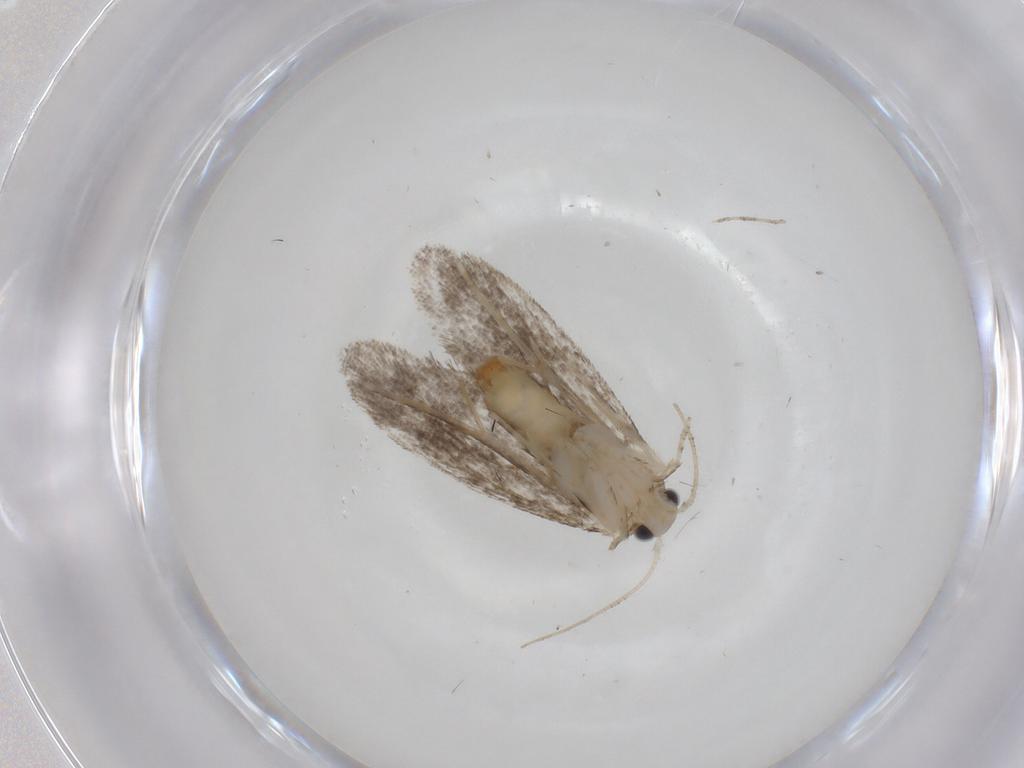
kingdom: Animalia
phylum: Arthropoda
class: Insecta
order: Lepidoptera
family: Tineidae
